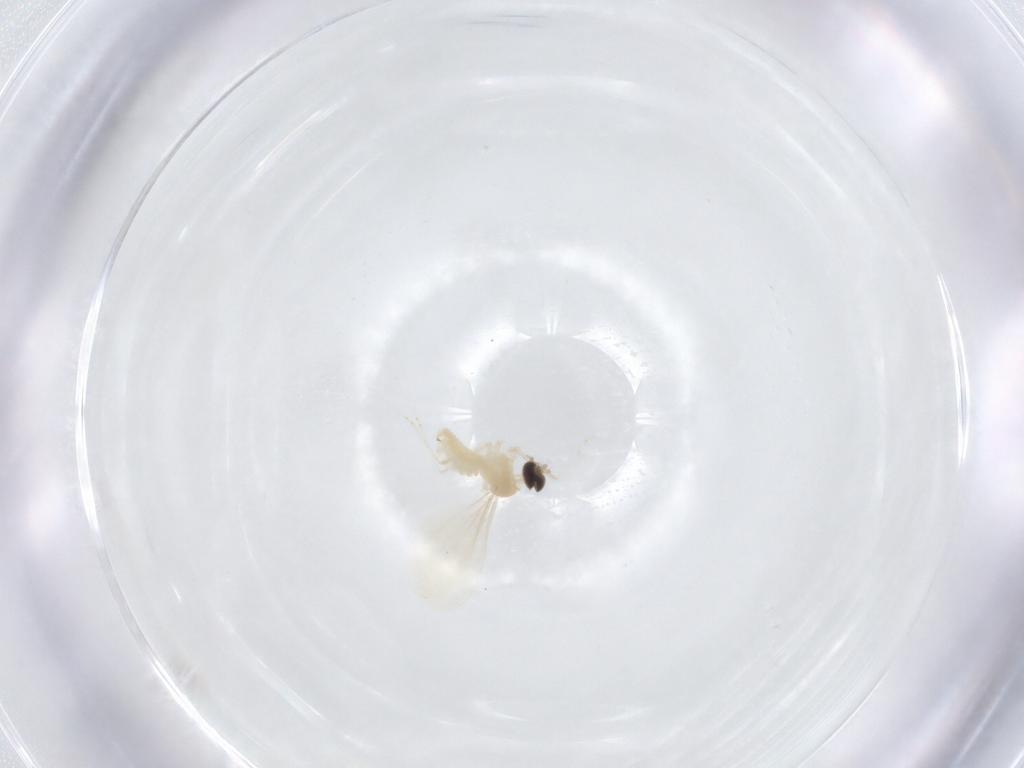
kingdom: Animalia
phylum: Arthropoda
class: Insecta
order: Diptera
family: Cecidomyiidae
